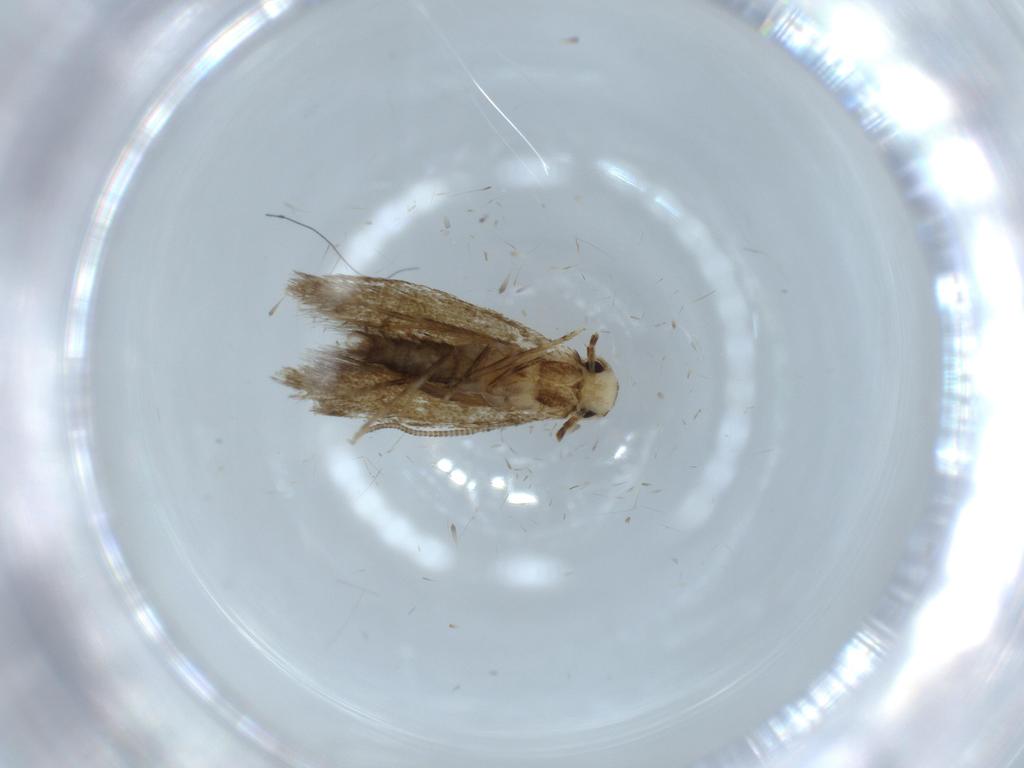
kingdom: Animalia
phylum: Arthropoda
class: Insecta
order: Lepidoptera
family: Tineidae
